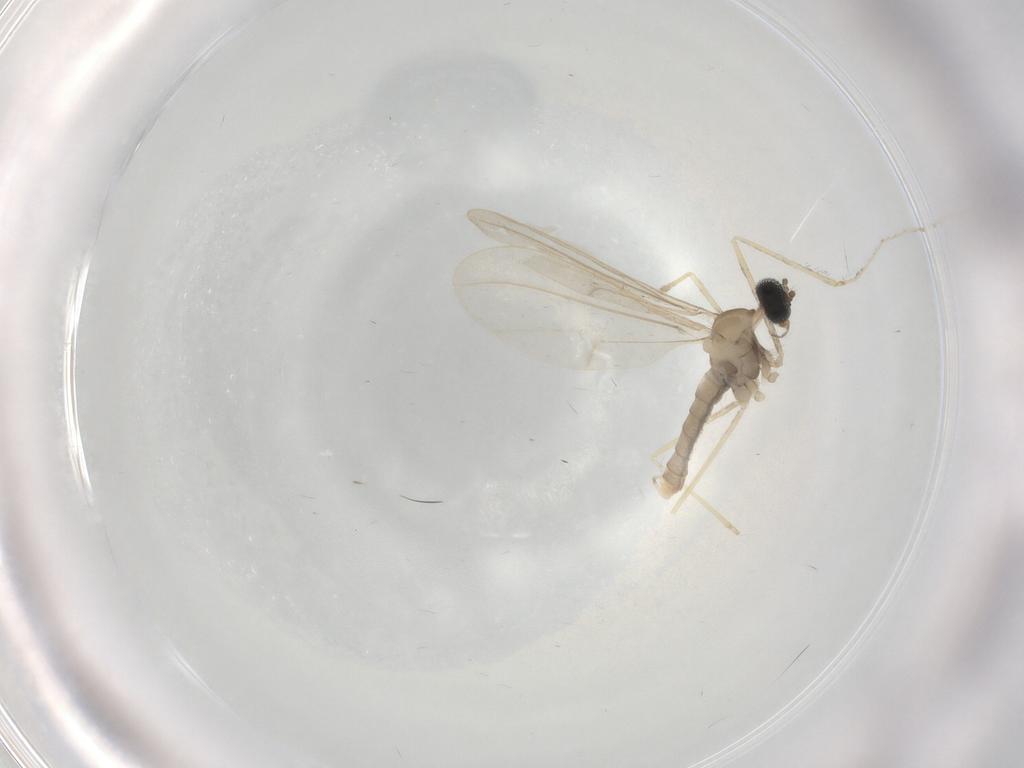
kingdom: Animalia
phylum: Arthropoda
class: Insecta
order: Diptera
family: Cecidomyiidae
